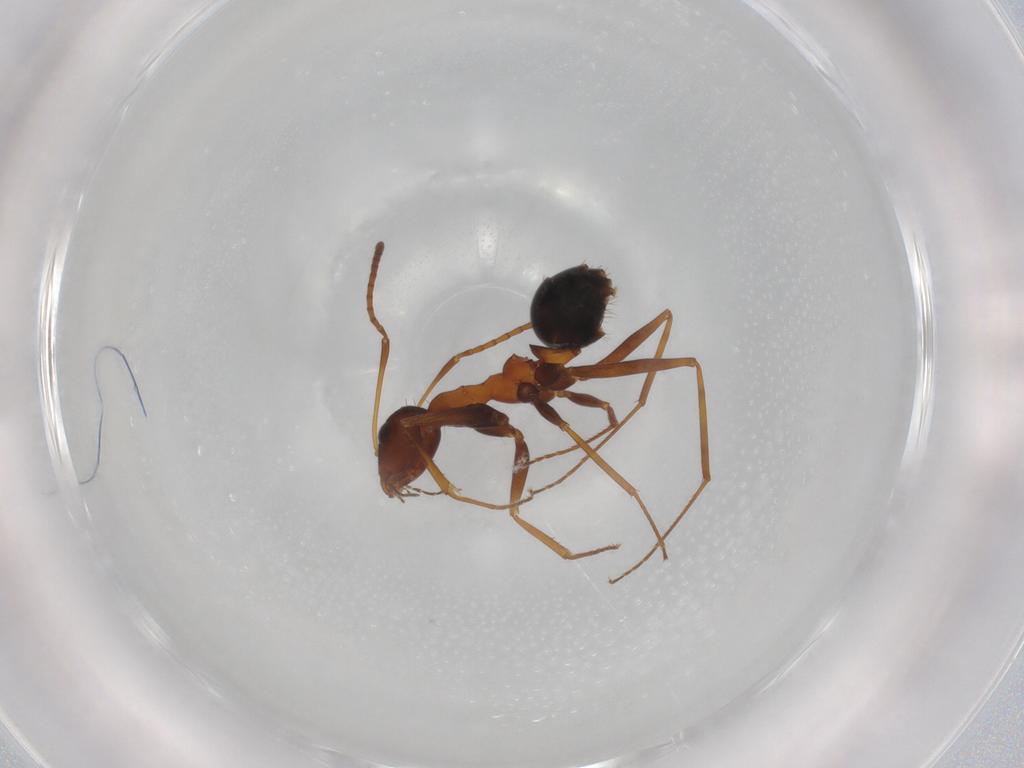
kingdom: Animalia
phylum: Arthropoda
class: Insecta
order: Hymenoptera
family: Formicidae
